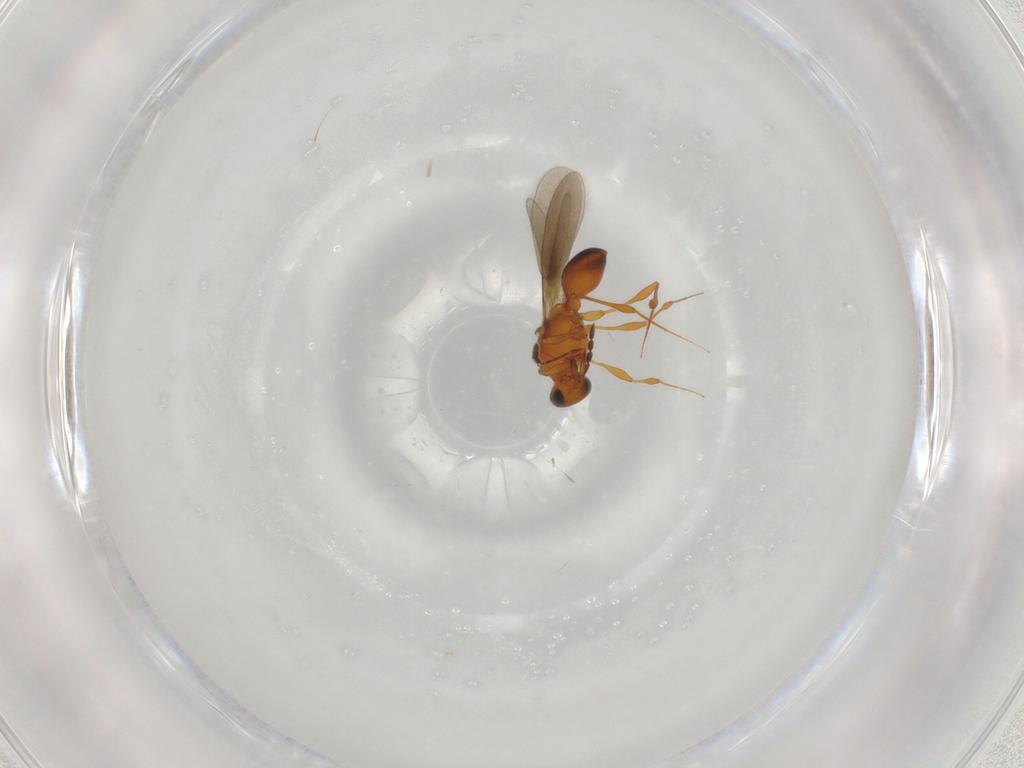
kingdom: Animalia
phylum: Arthropoda
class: Insecta
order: Hymenoptera
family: Platygastridae
